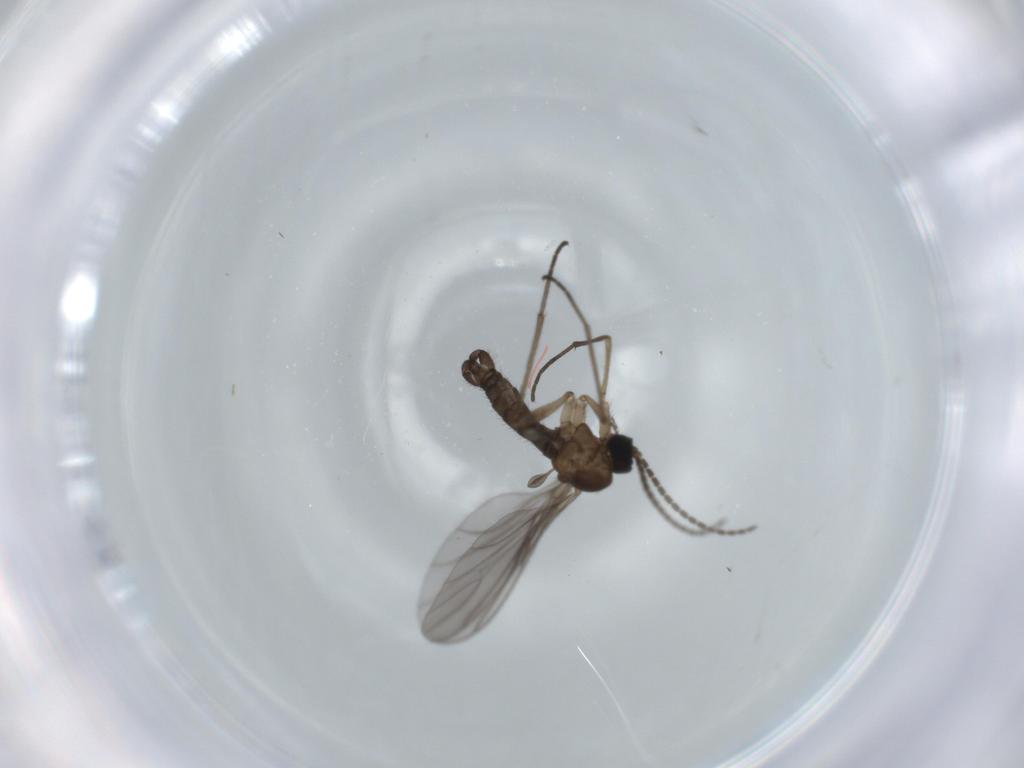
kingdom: Animalia
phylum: Arthropoda
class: Insecta
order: Diptera
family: Sciaridae
